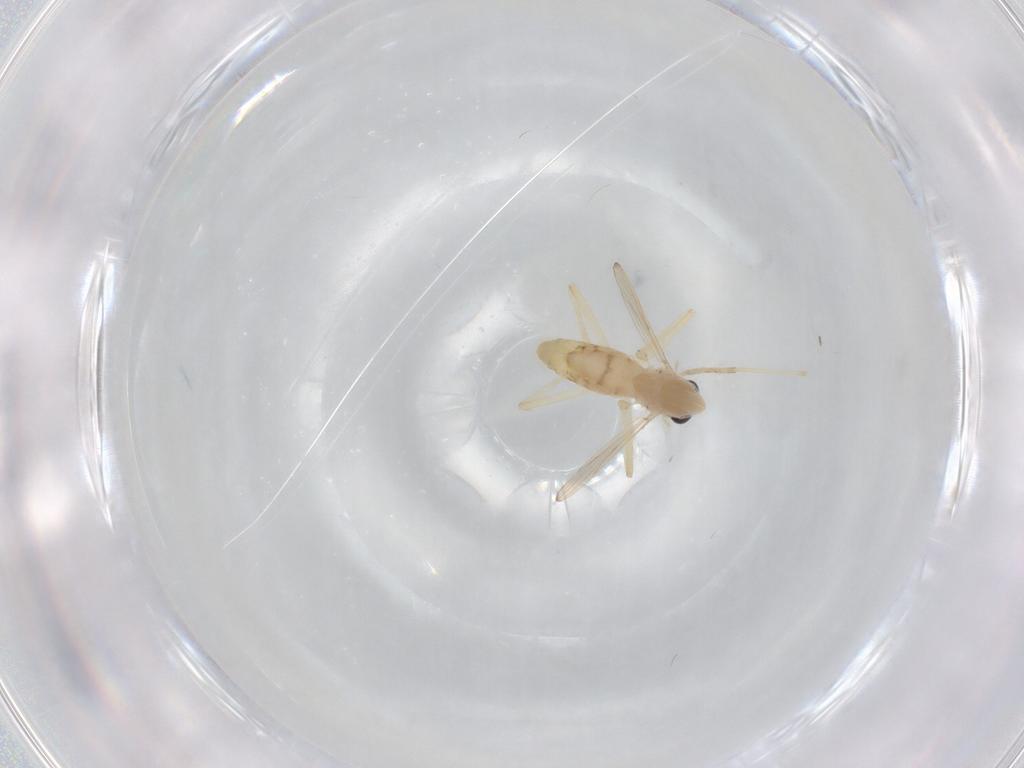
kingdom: Animalia
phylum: Arthropoda
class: Insecta
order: Diptera
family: Chironomidae
